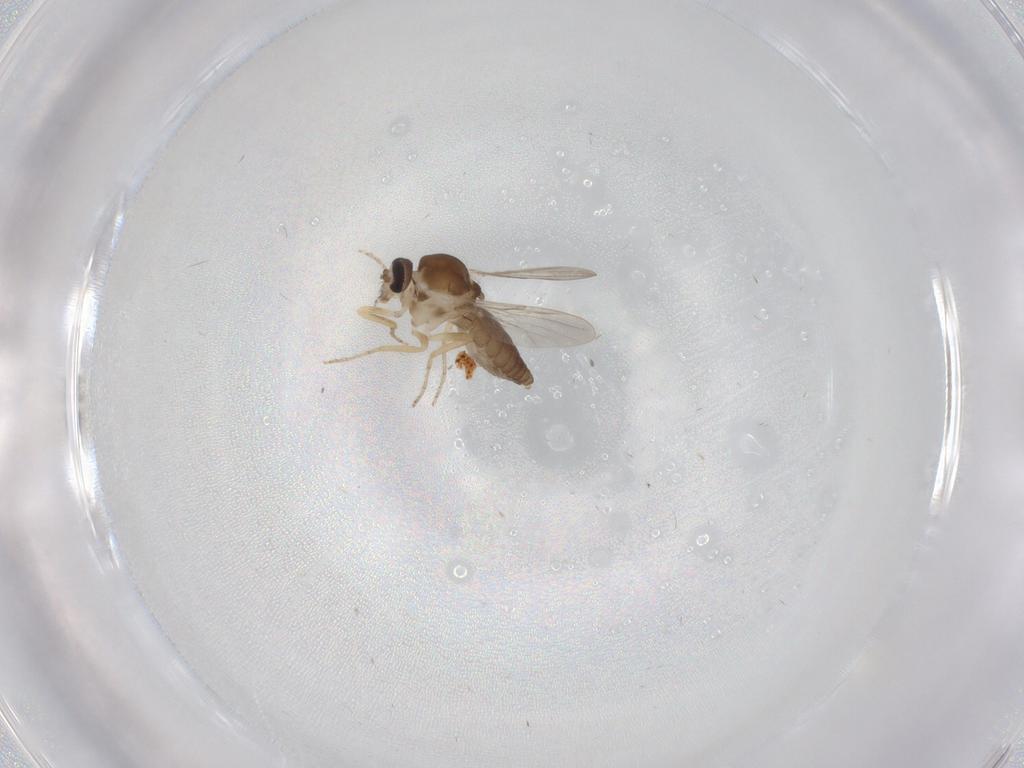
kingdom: Animalia
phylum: Arthropoda
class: Insecta
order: Diptera
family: Ceratopogonidae
